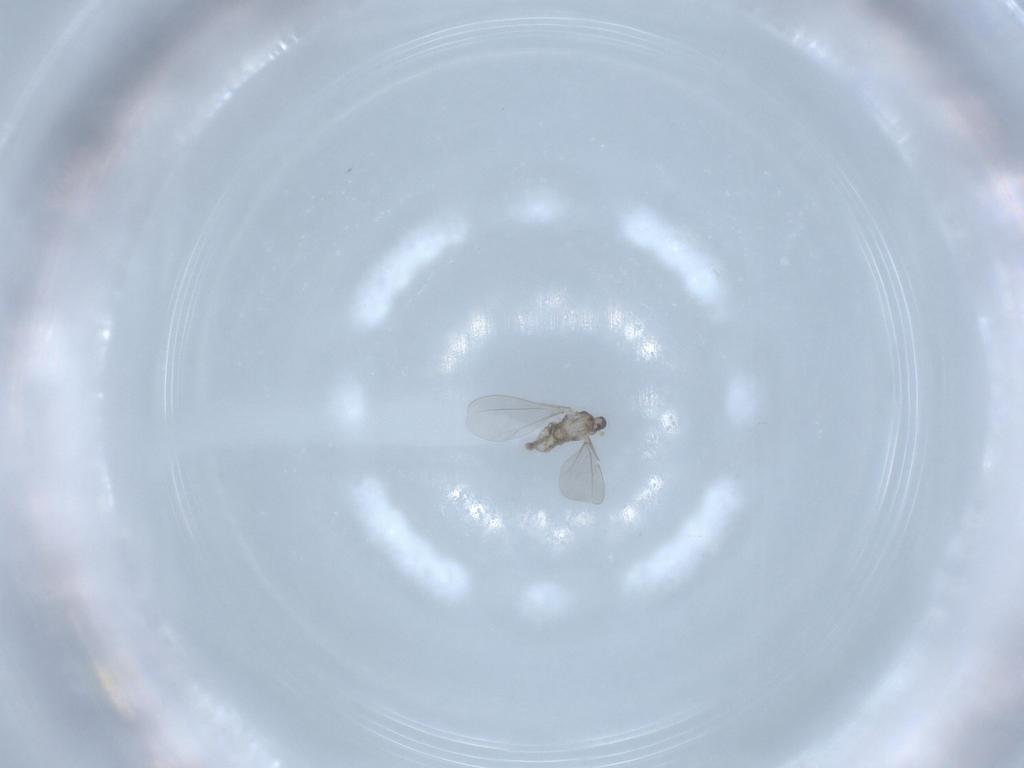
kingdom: Animalia
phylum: Arthropoda
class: Insecta
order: Diptera
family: Cecidomyiidae
